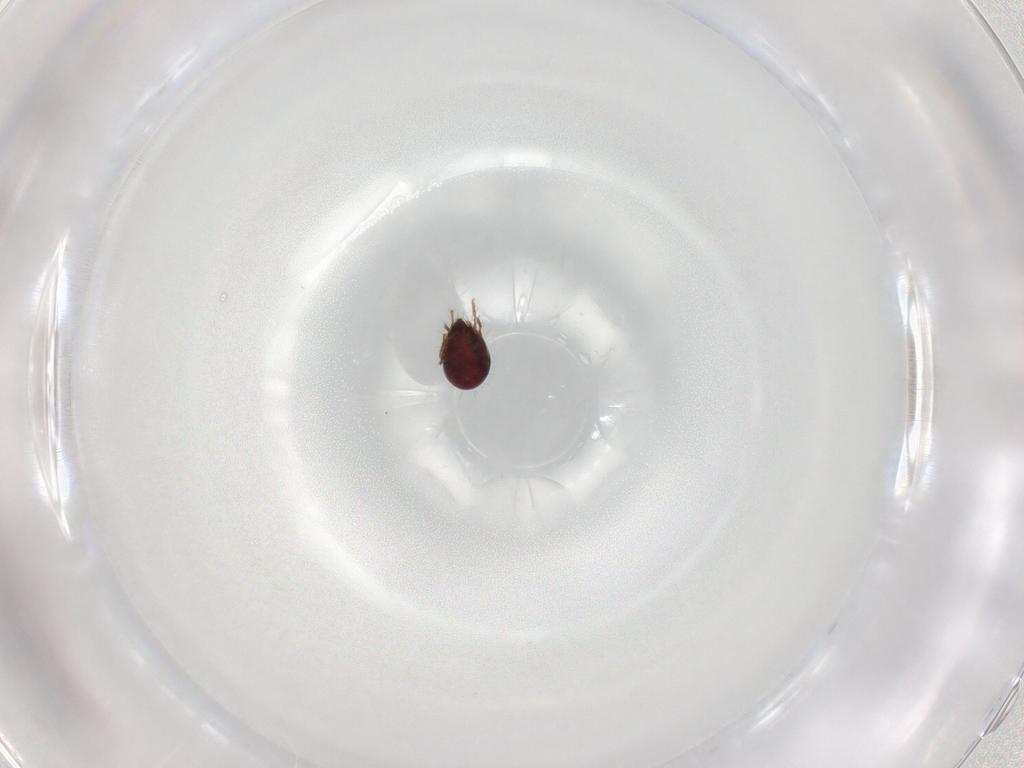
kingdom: Animalia
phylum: Arthropoda
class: Arachnida
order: Sarcoptiformes
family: Humerobatidae
